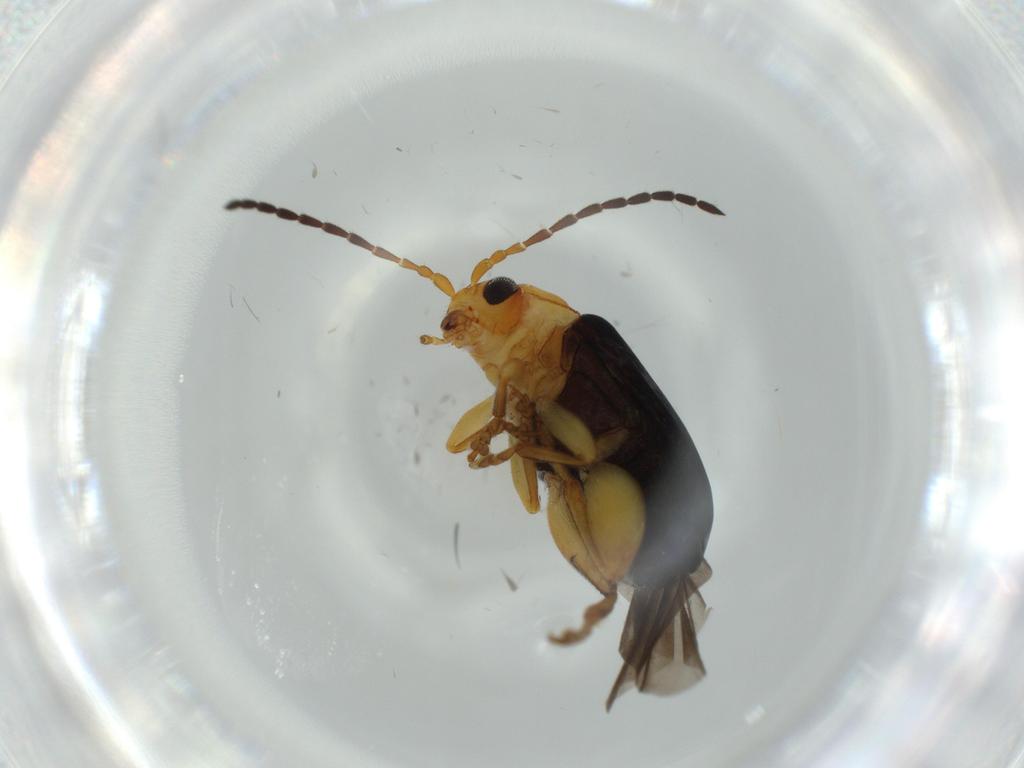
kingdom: Animalia
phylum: Arthropoda
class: Insecta
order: Coleoptera
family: Chrysomelidae
